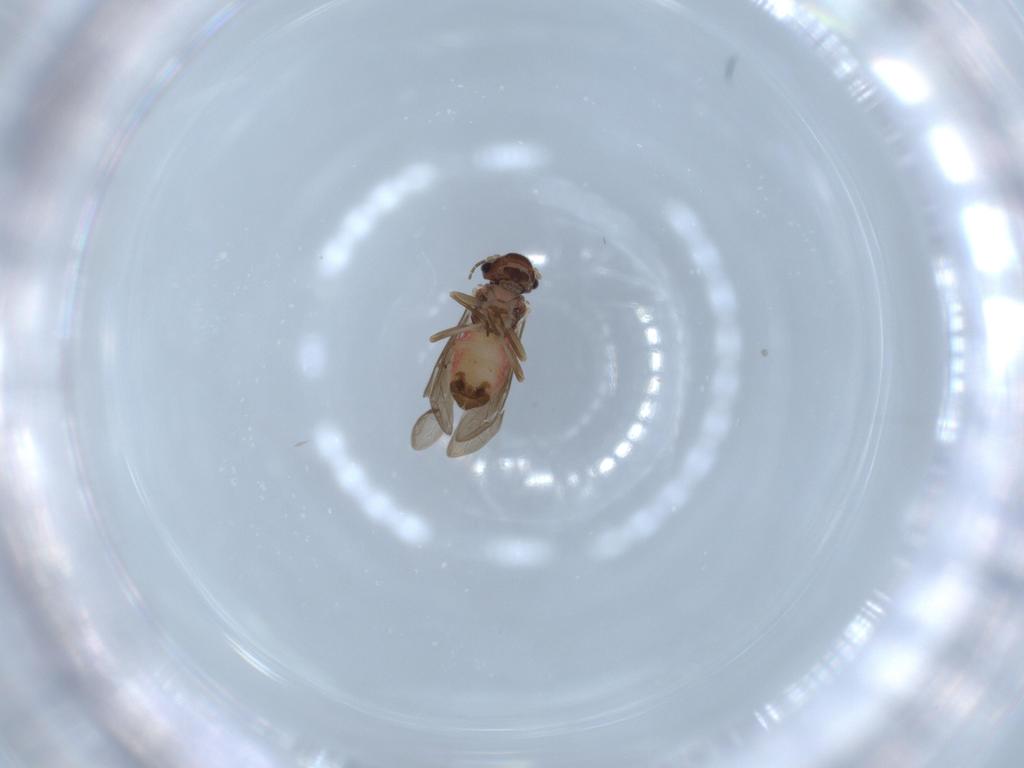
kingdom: Animalia
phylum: Arthropoda
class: Insecta
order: Psocodea
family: Asiopsocidae
